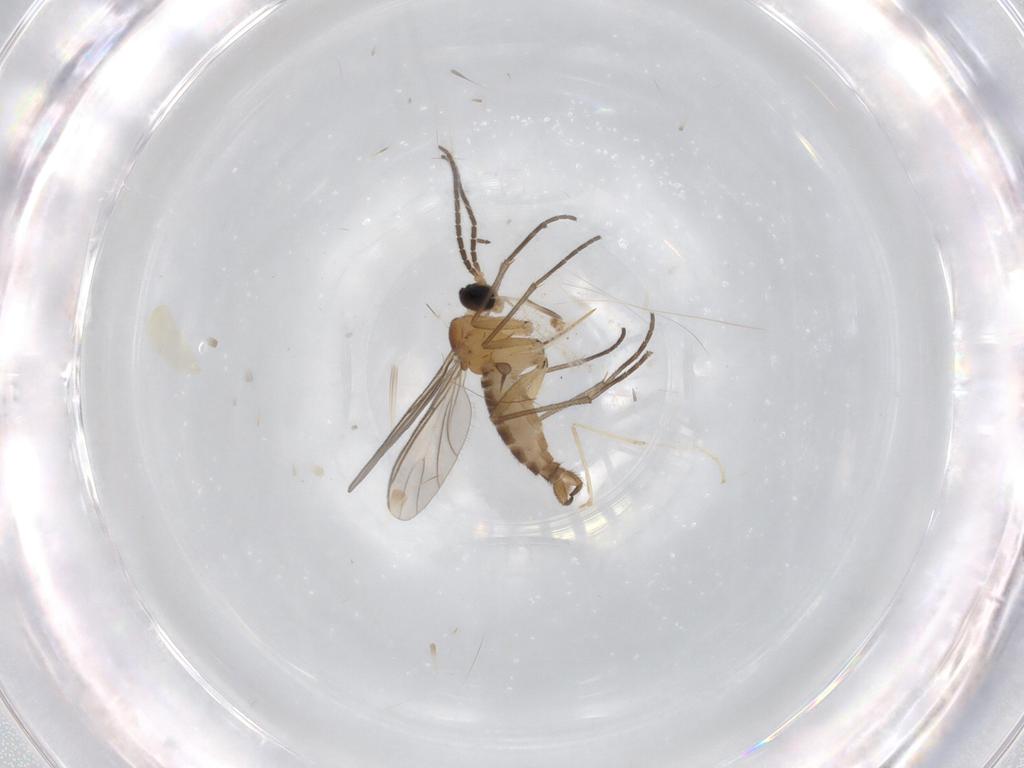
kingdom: Animalia
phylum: Arthropoda
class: Insecta
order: Diptera
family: Sciaridae
